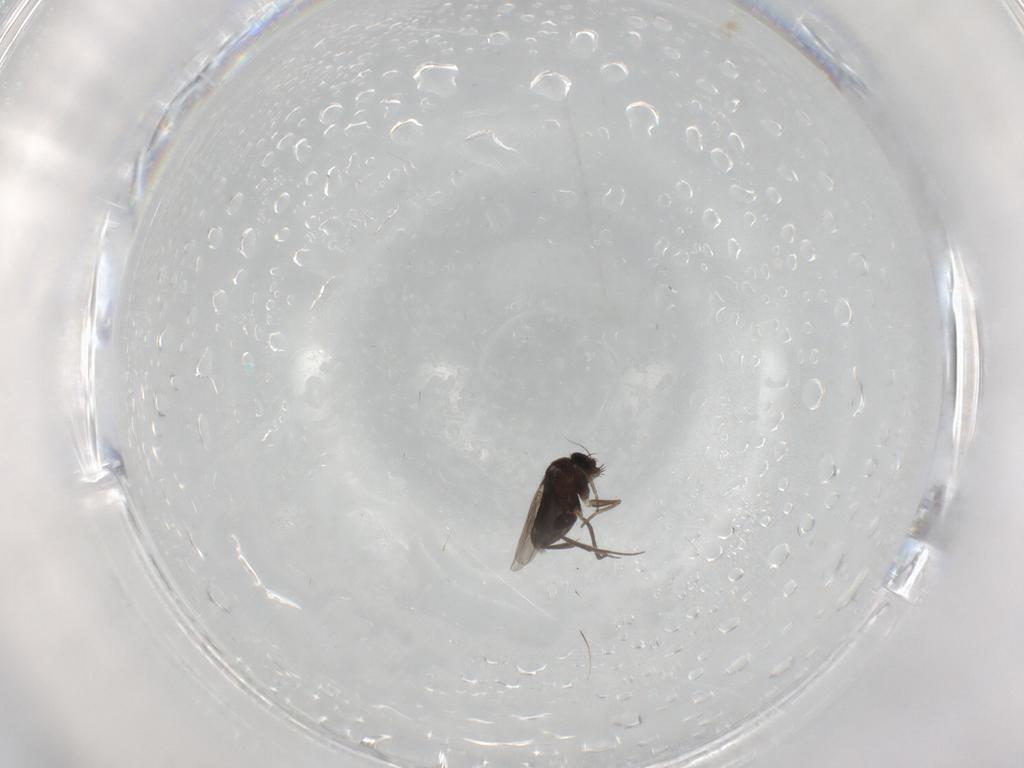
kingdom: Animalia
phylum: Arthropoda
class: Insecta
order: Diptera
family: Phoridae
